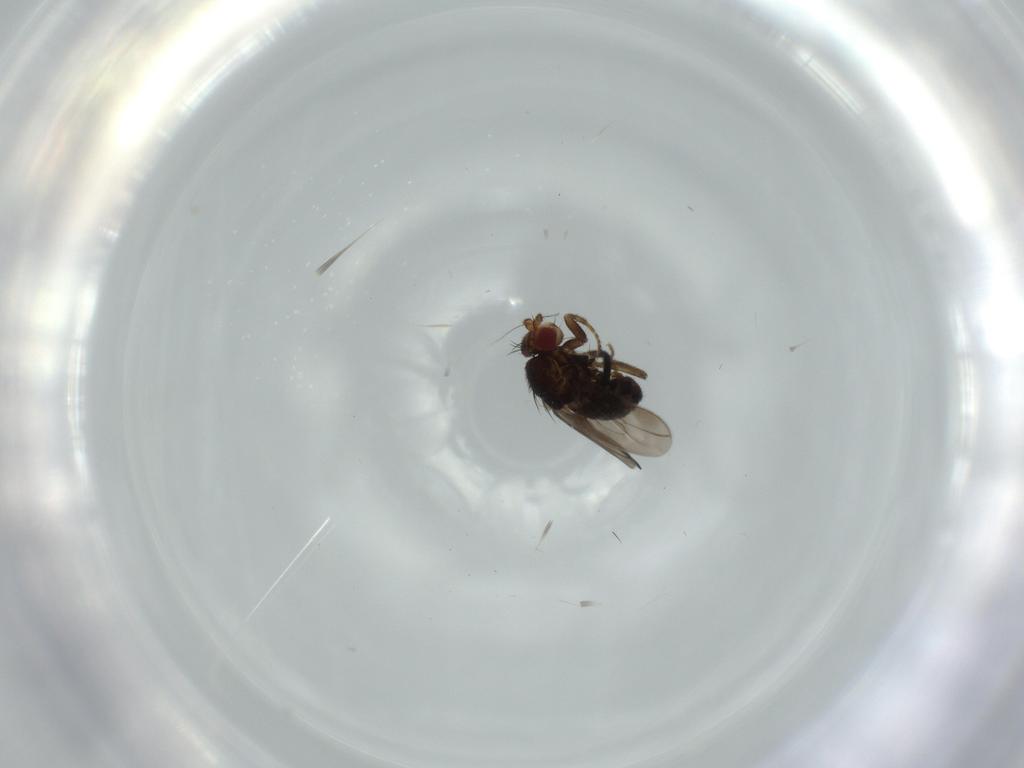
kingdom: Animalia
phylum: Arthropoda
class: Insecta
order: Diptera
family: Sphaeroceridae
